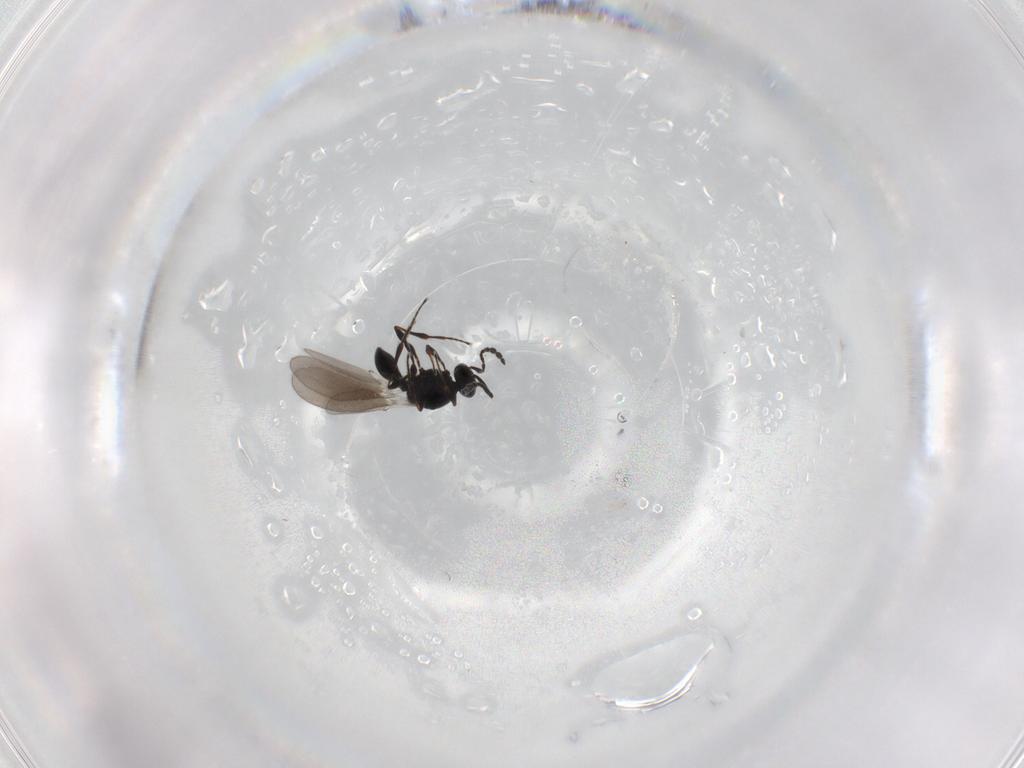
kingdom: Animalia
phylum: Arthropoda
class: Insecta
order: Hymenoptera
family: Platygastridae
